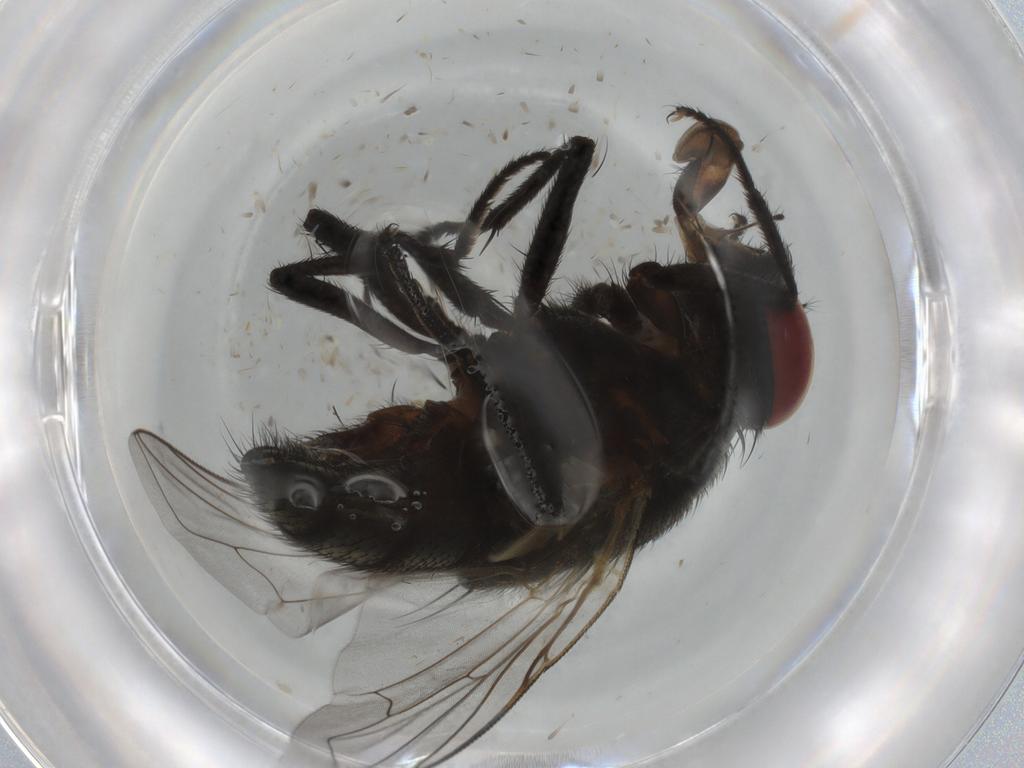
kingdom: Animalia
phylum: Arthropoda
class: Insecta
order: Diptera
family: Muscidae
